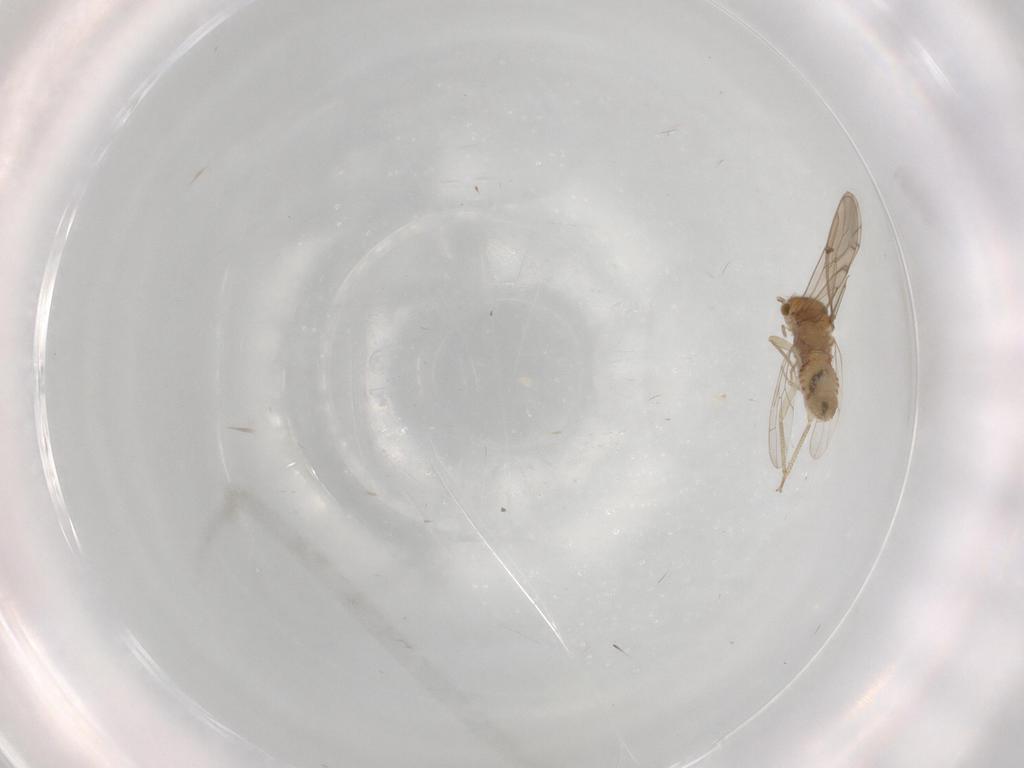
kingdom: Animalia
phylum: Arthropoda
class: Insecta
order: Psocodea
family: Ectopsocidae
